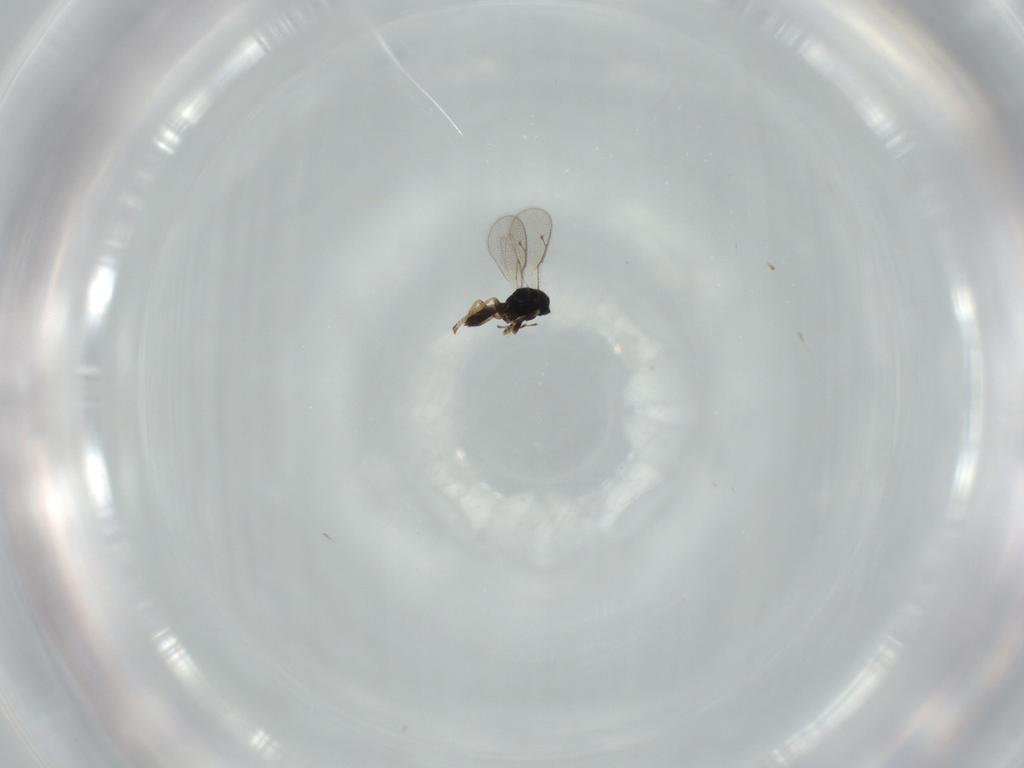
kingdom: Animalia
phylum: Arthropoda
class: Insecta
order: Hymenoptera
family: Pteromalidae
